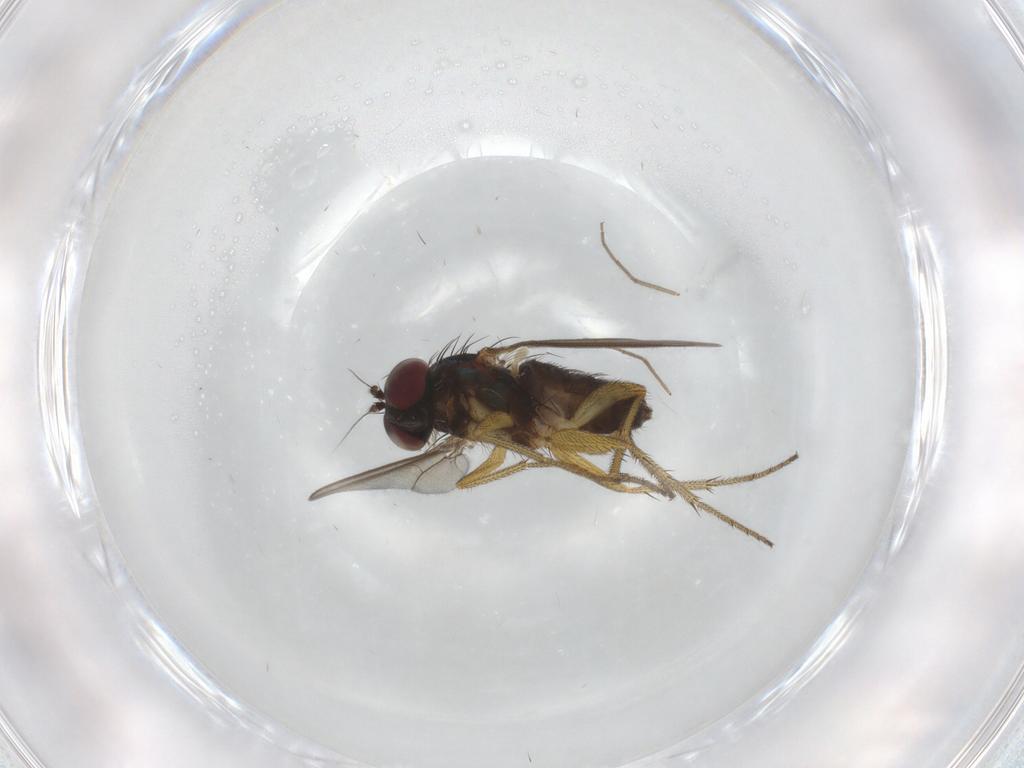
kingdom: Animalia
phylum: Arthropoda
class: Insecta
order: Diptera
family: Dolichopodidae
